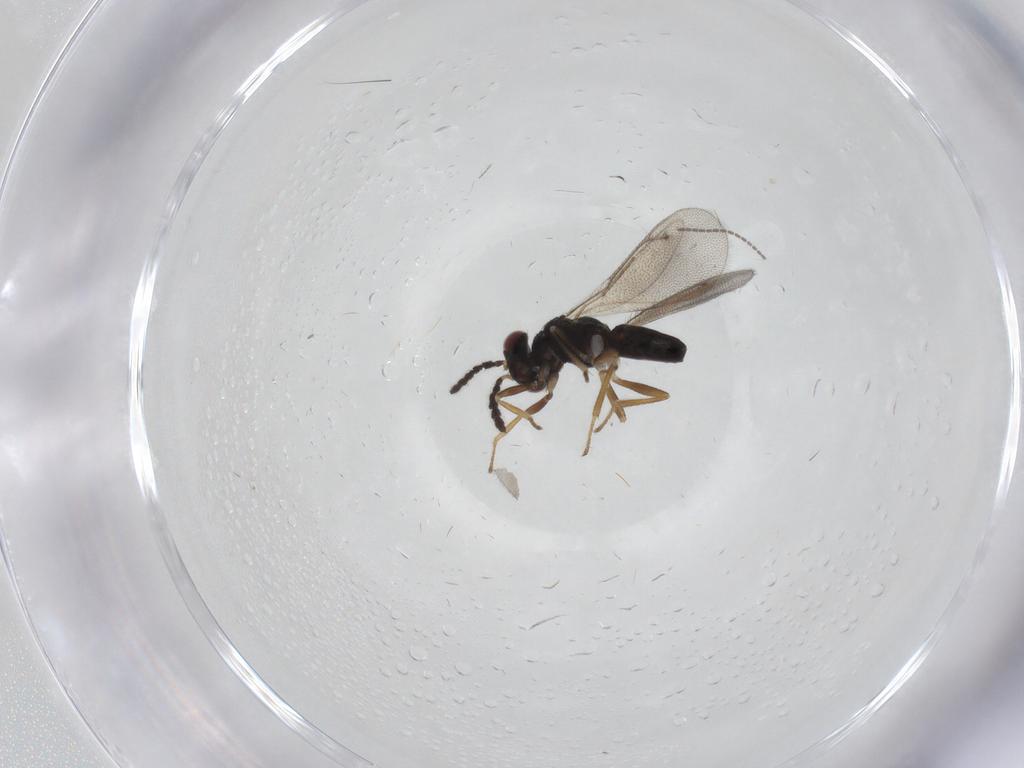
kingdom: Animalia
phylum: Arthropoda
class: Insecta
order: Hymenoptera
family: Eulophidae
